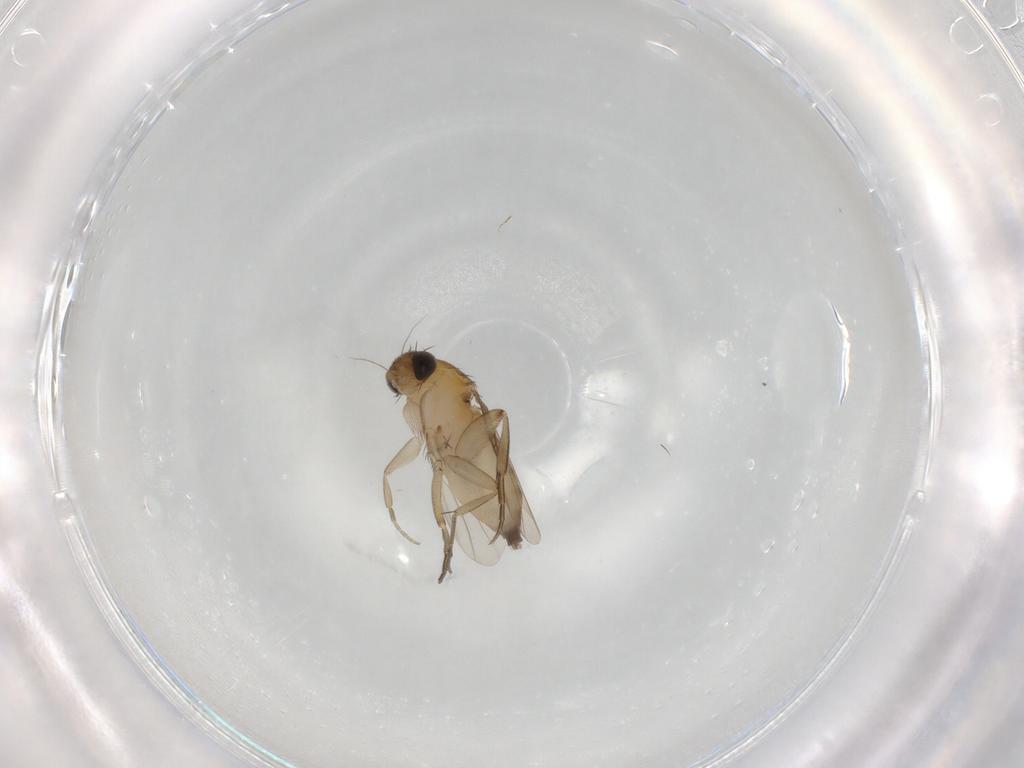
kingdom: Animalia
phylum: Arthropoda
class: Insecta
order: Diptera
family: Phoridae
